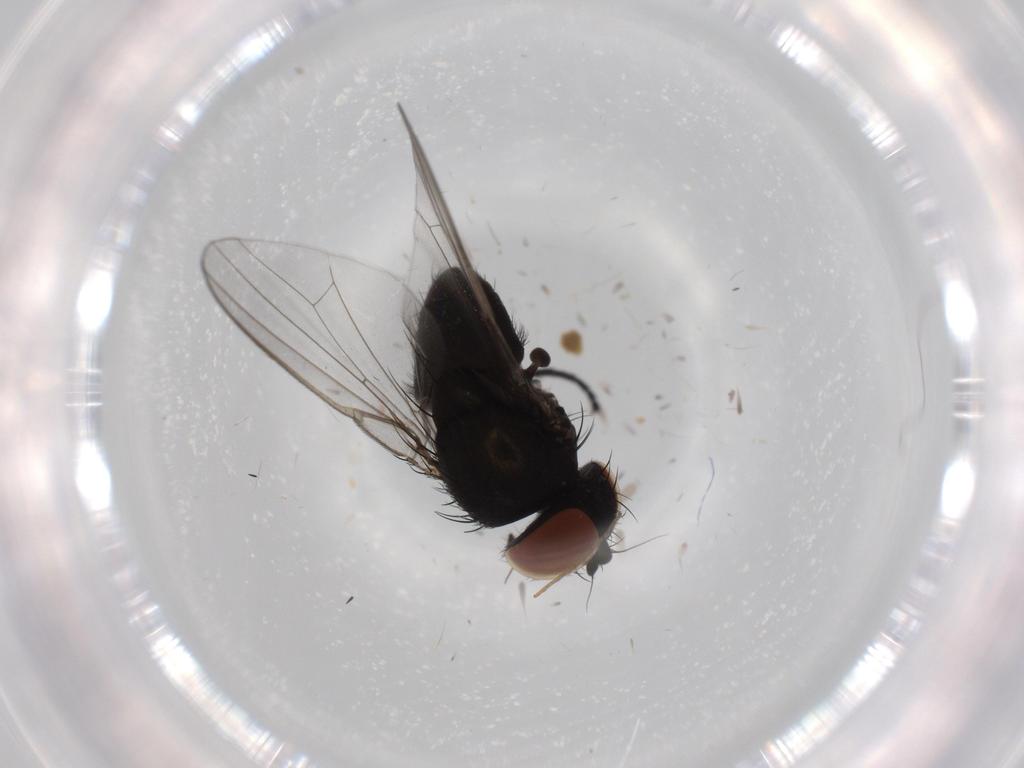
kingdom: Animalia
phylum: Arthropoda
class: Insecta
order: Diptera
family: Milichiidae
